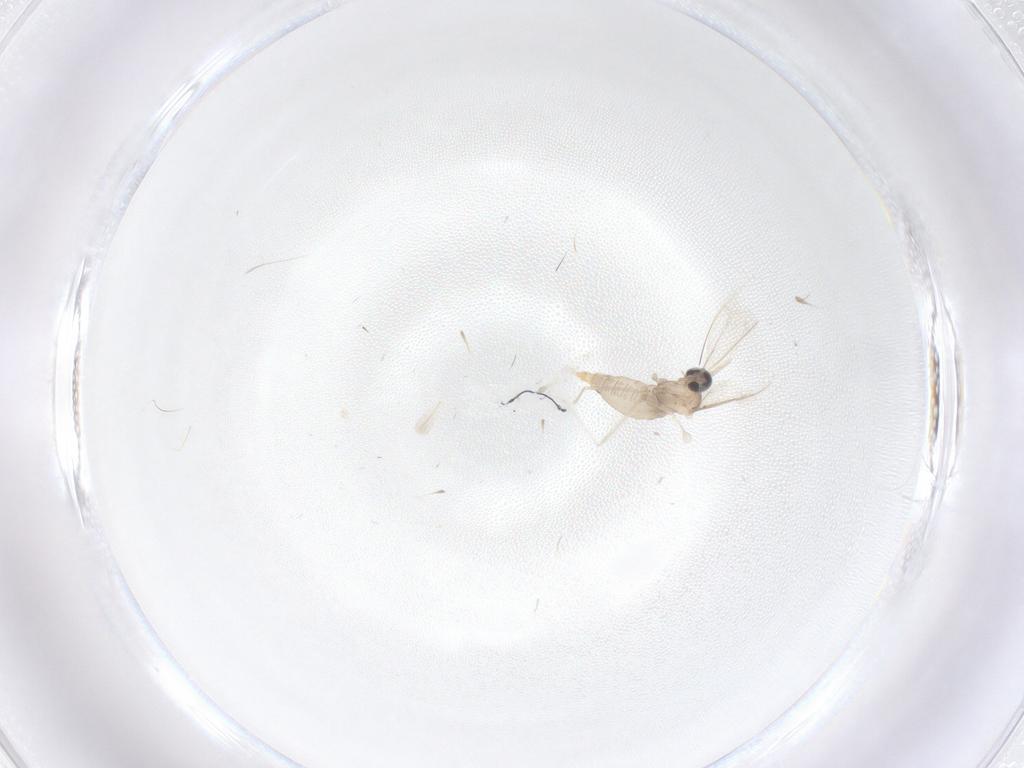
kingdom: Animalia
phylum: Arthropoda
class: Insecta
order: Diptera
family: Cecidomyiidae
